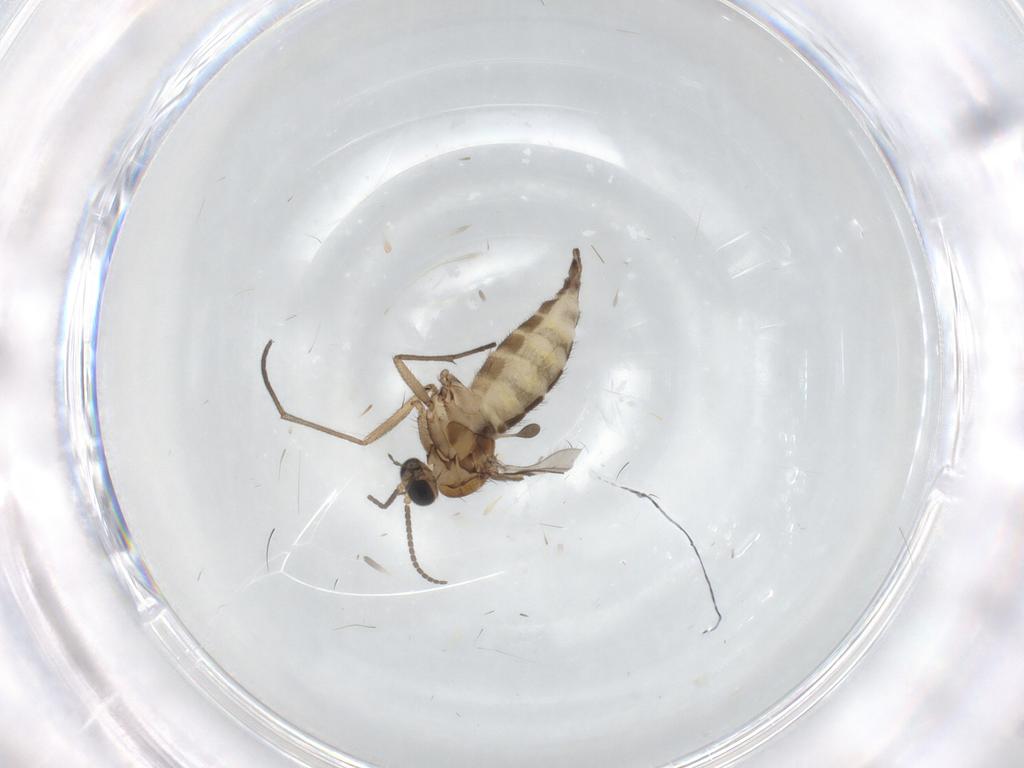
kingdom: Animalia
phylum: Arthropoda
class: Insecta
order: Diptera
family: Sciaridae
